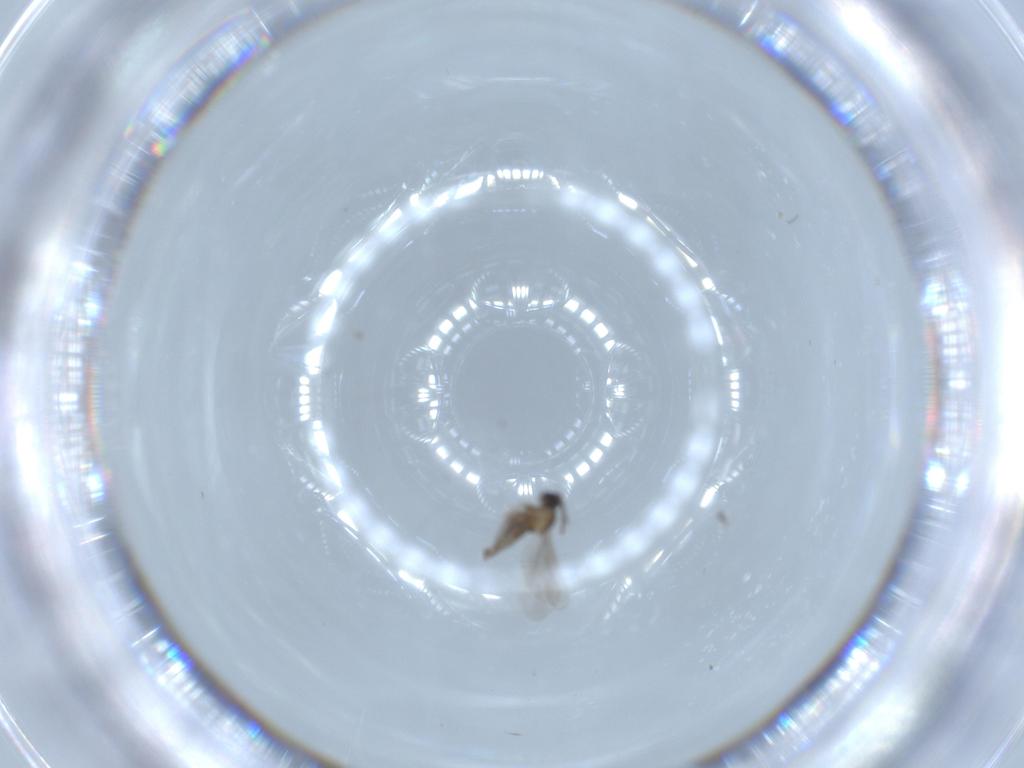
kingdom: Animalia
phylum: Arthropoda
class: Insecta
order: Diptera
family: Cecidomyiidae
